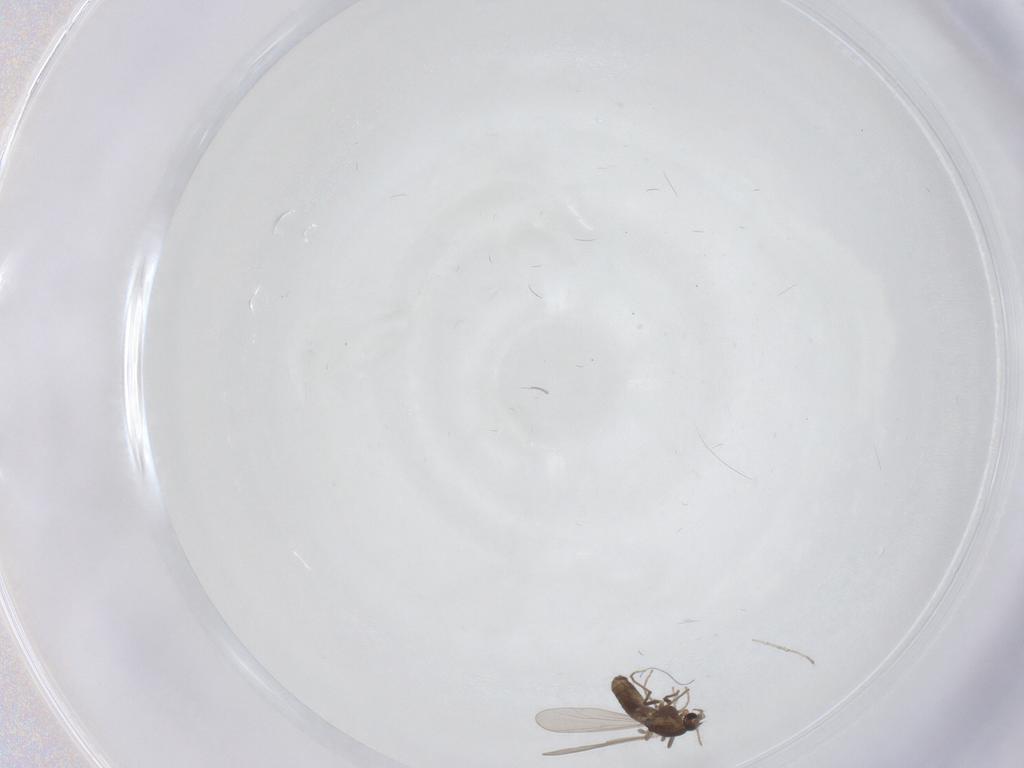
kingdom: Animalia
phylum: Arthropoda
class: Insecta
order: Diptera
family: Chironomidae
